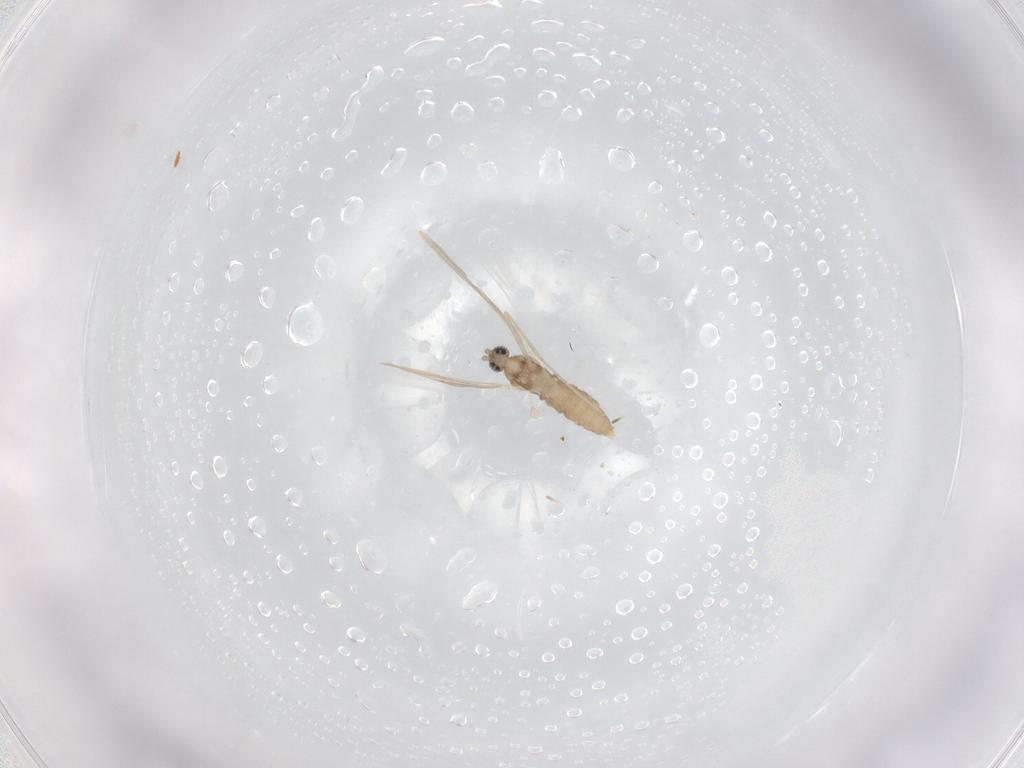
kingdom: Animalia
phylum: Arthropoda
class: Insecta
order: Diptera
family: Cecidomyiidae
